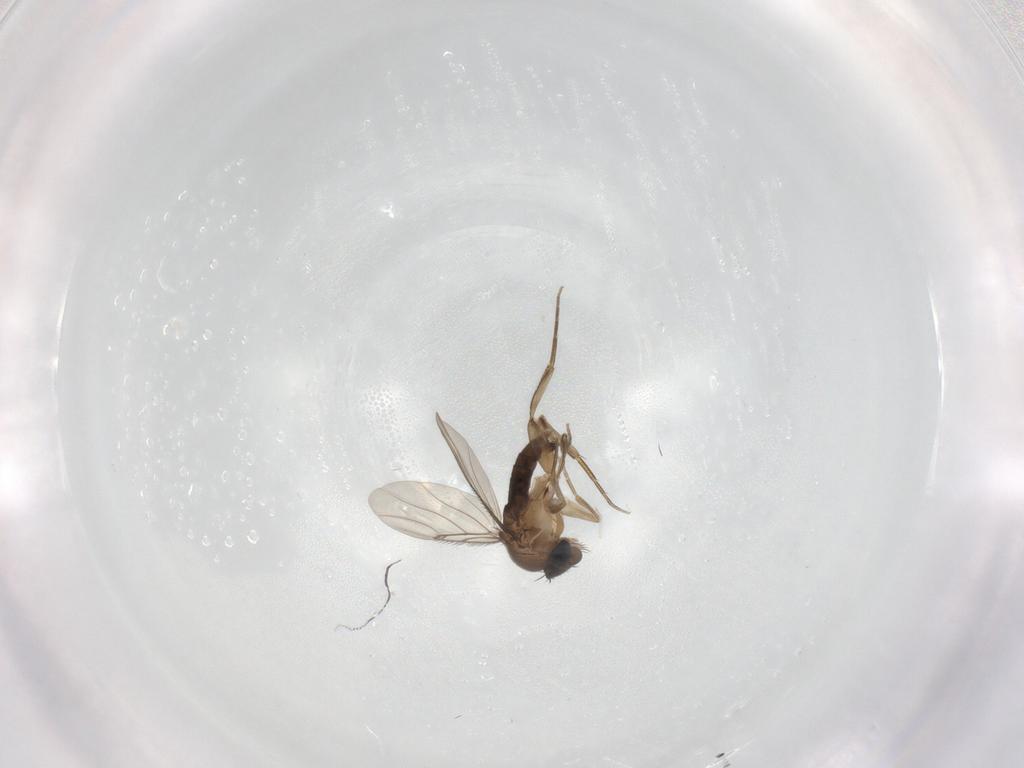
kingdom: Animalia
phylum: Arthropoda
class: Insecta
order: Diptera
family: Phoridae
